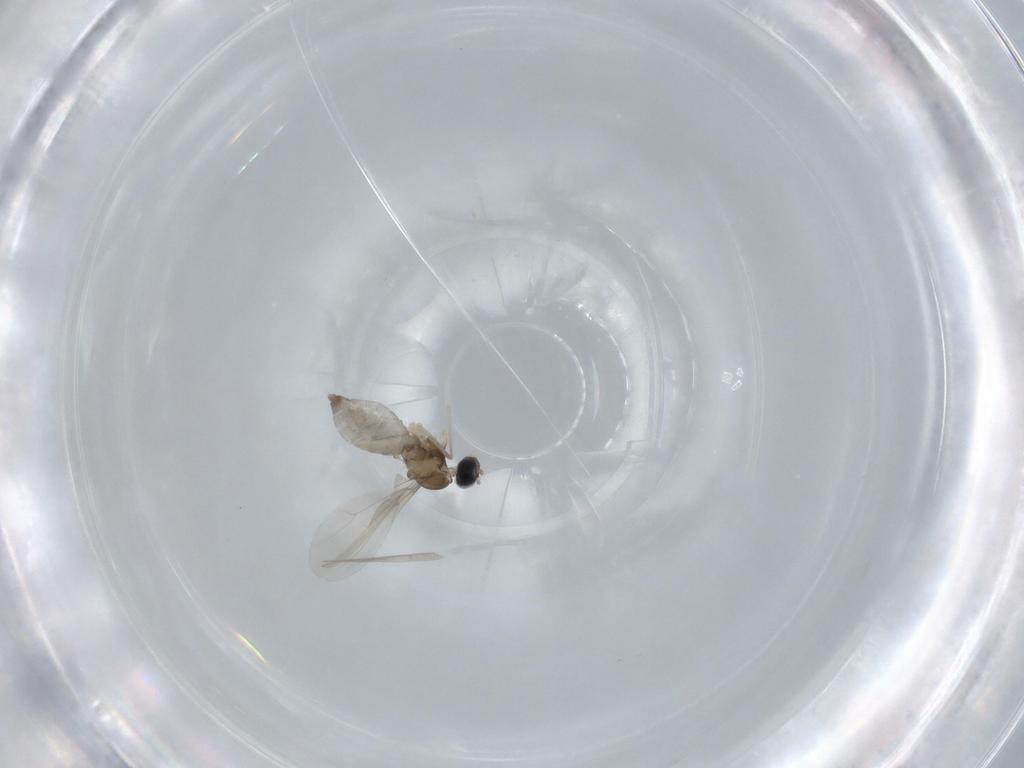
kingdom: Animalia
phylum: Arthropoda
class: Insecta
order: Diptera
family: Cecidomyiidae
